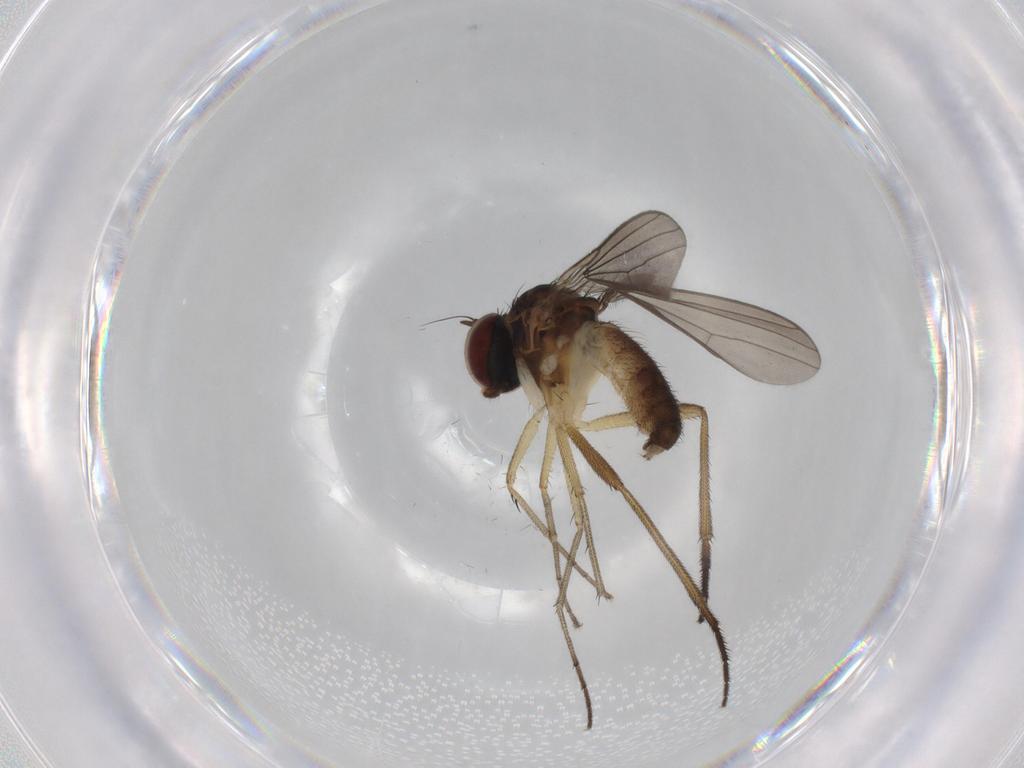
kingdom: Animalia
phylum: Arthropoda
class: Insecta
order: Diptera
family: Dolichopodidae
